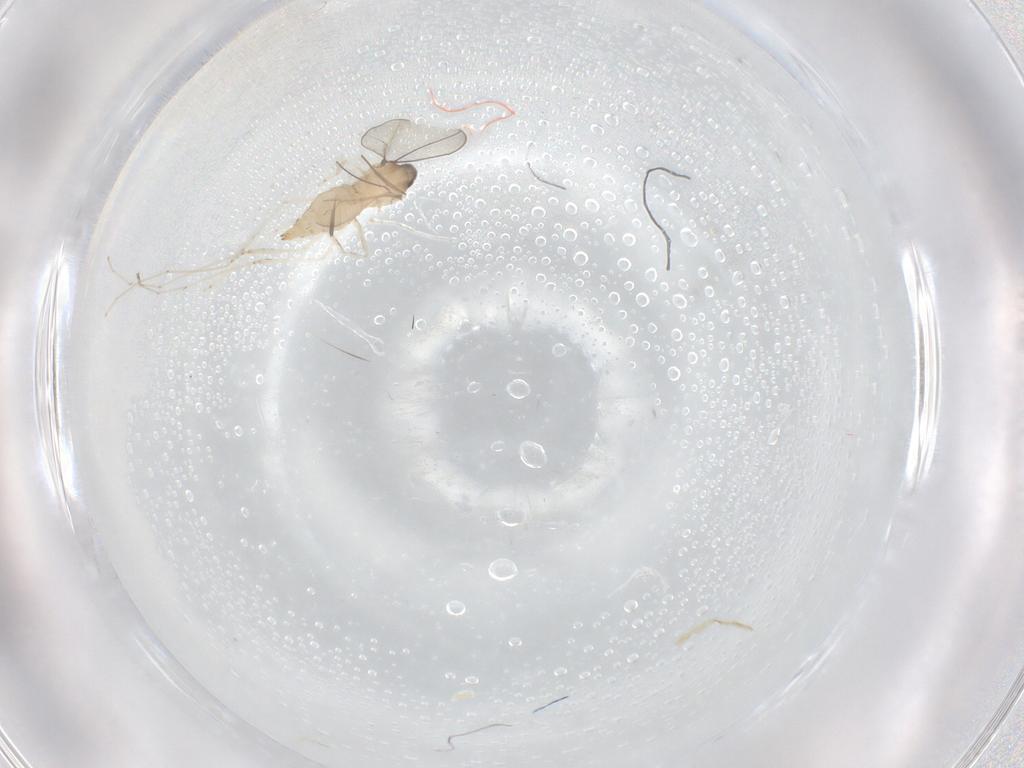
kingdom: Animalia
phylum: Arthropoda
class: Insecta
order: Diptera
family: Cecidomyiidae
